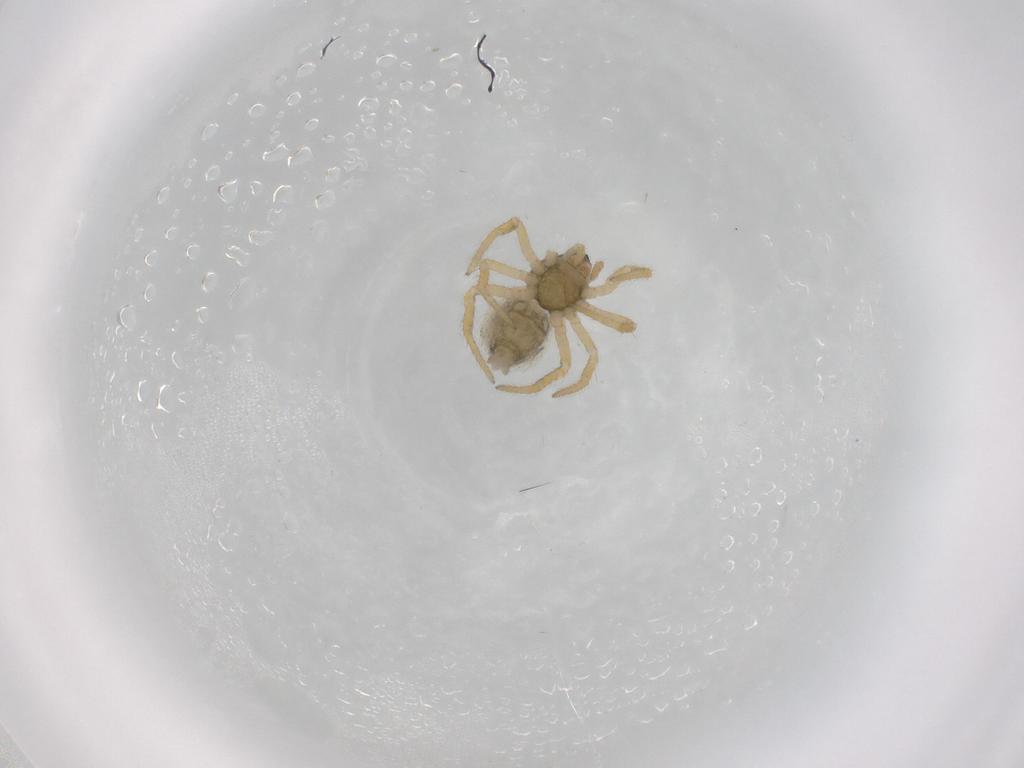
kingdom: Animalia
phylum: Arthropoda
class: Arachnida
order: Araneae
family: Theridiidae
